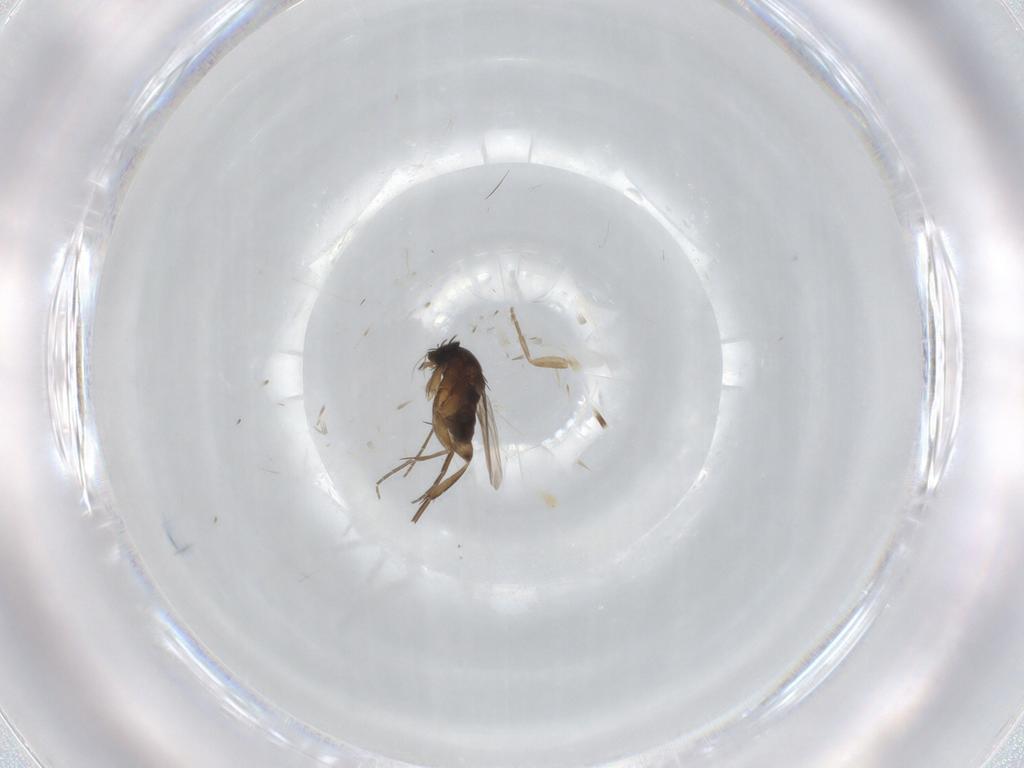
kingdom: Animalia
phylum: Arthropoda
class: Insecta
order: Diptera
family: Phoridae
